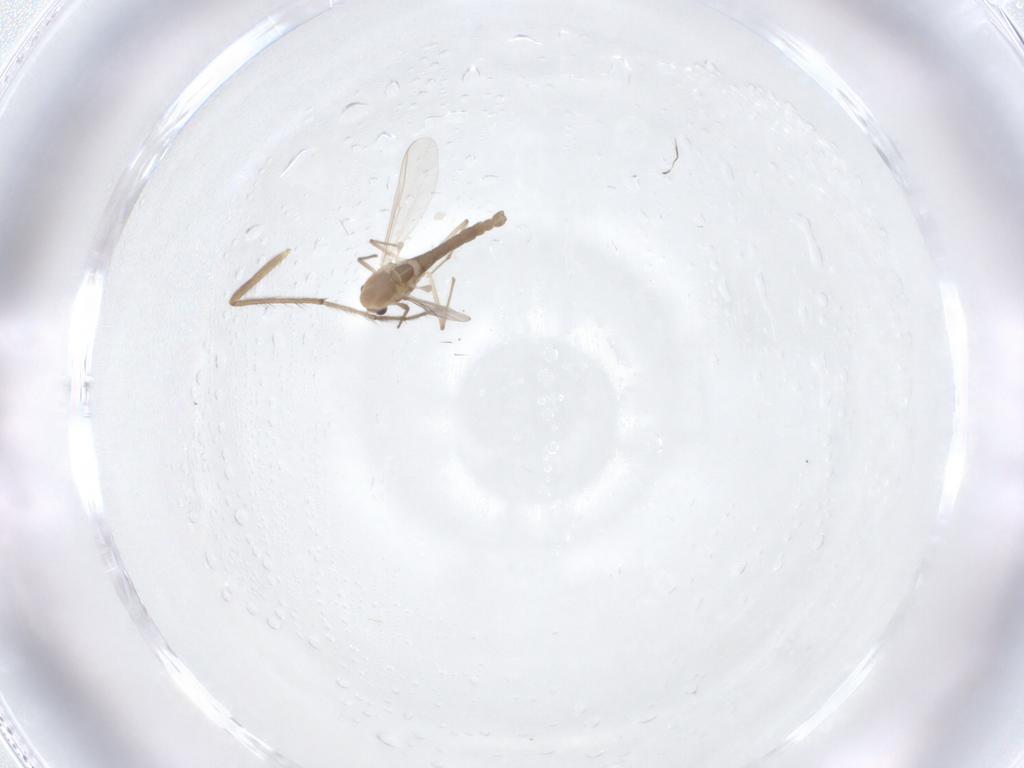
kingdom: Animalia
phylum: Arthropoda
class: Insecta
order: Diptera
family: Chironomidae
